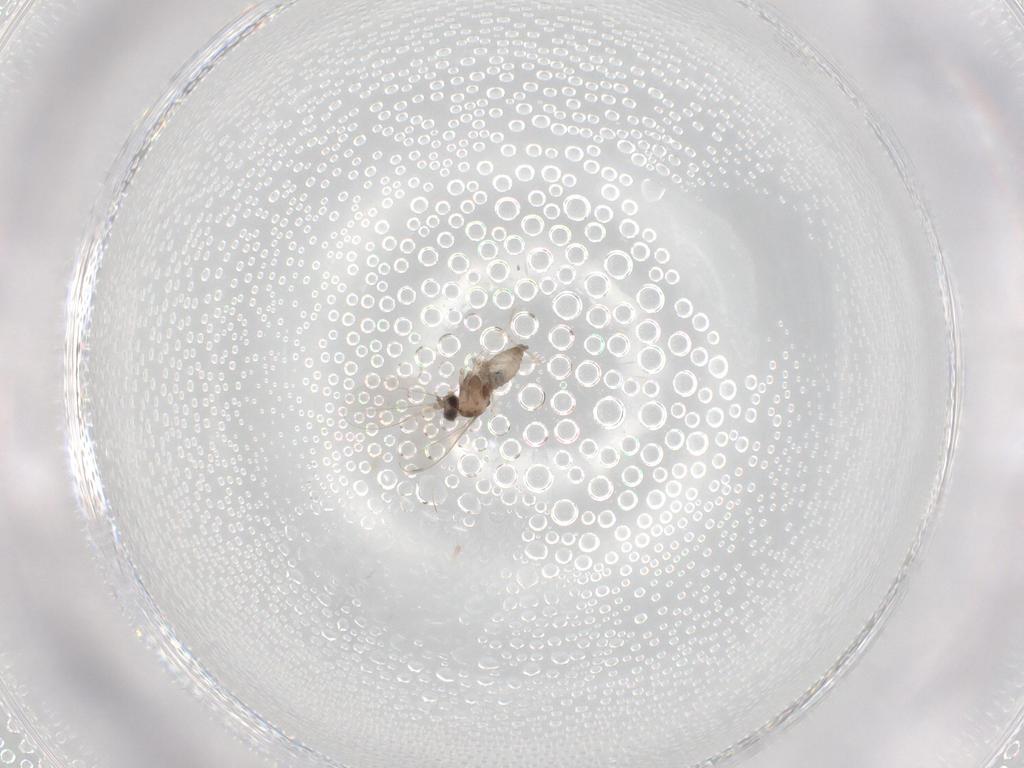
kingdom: Animalia
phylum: Arthropoda
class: Insecta
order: Diptera
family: Cecidomyiidae
